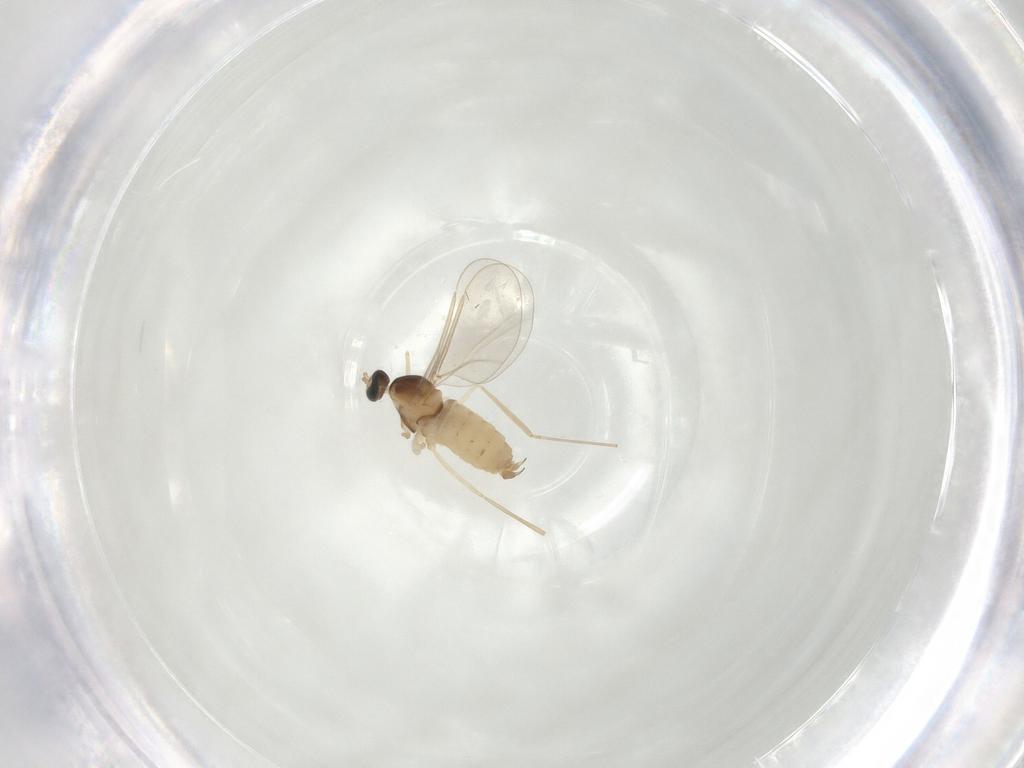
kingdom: Animalia
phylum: Arthropoda
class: Insecta
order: Diptera
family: Cecidomyiidae
